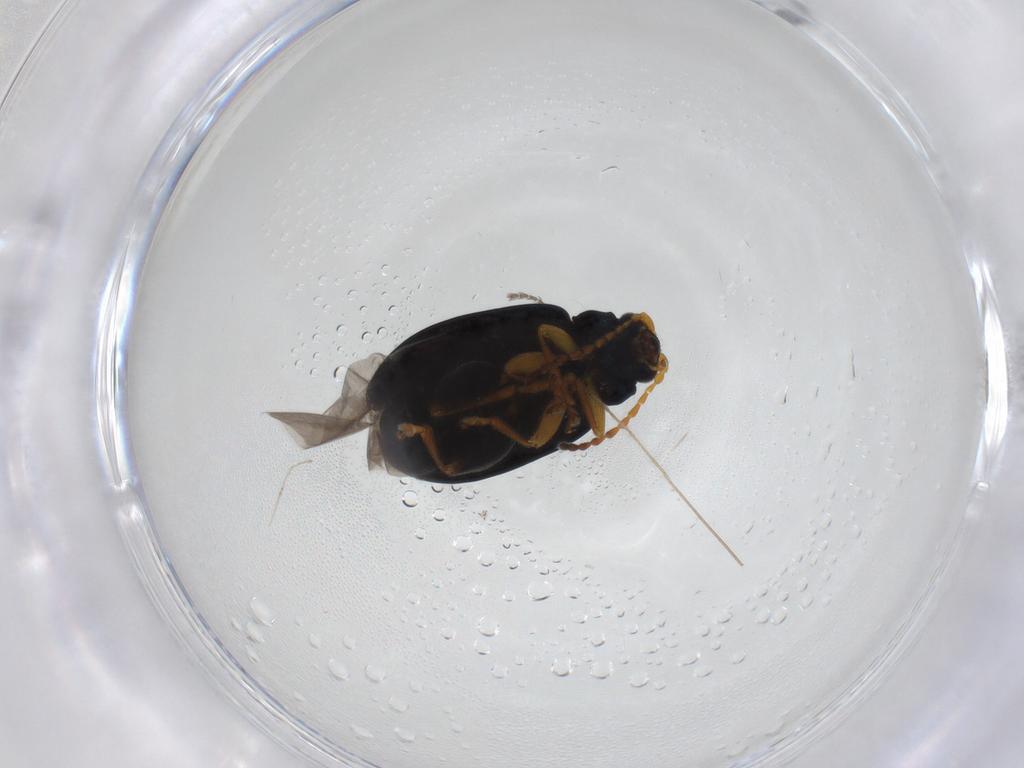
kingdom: Animalia
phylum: Arthropoda
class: Insecta
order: Coleoptera
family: Chrysomelidae
